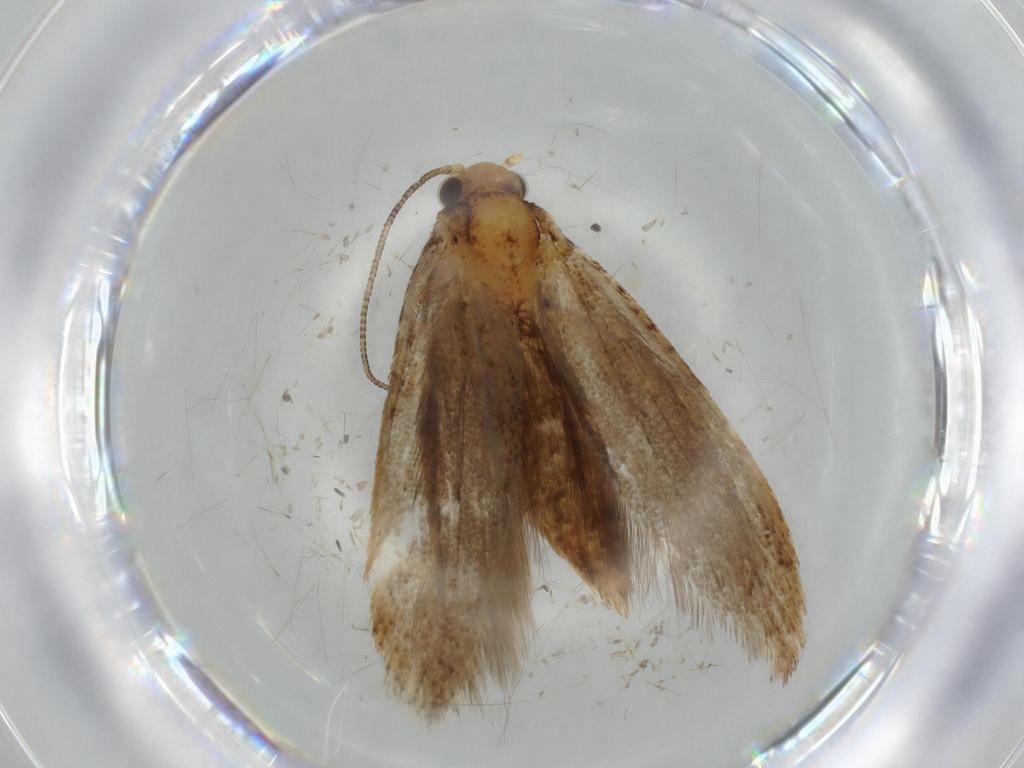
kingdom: Animalia
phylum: Arthropoda
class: Insecta
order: Lepidoptera
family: Tineidae
